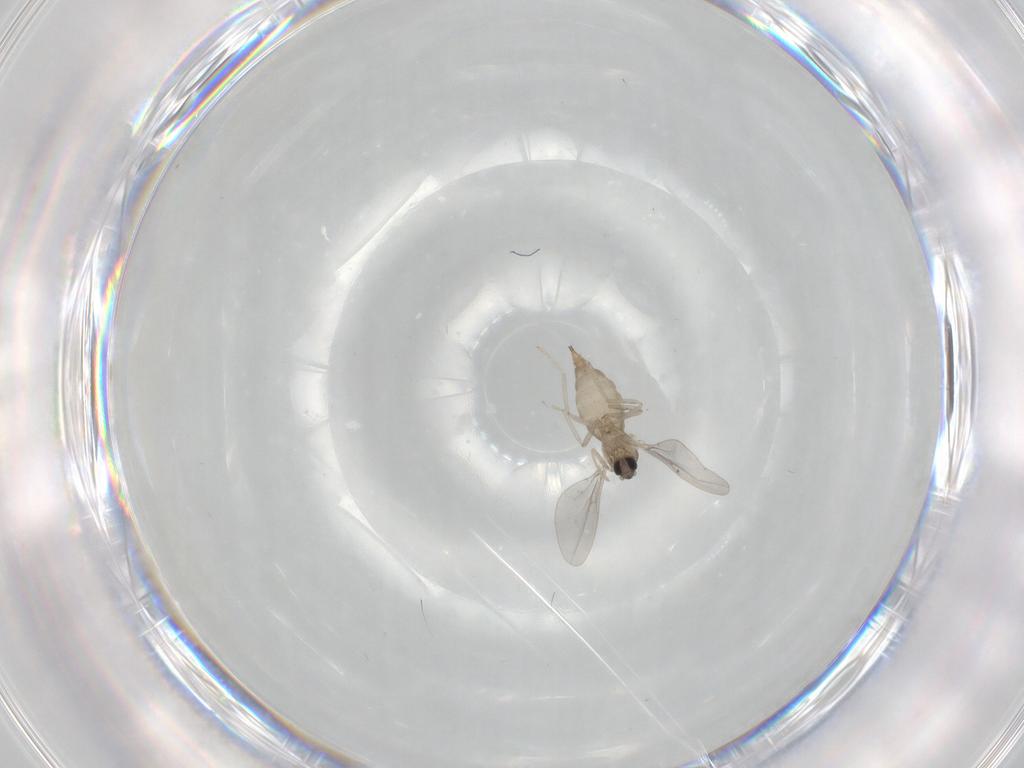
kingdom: Animalia
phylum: Arthropoda
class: Insecta
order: Diptera
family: Cecidomyiidae
